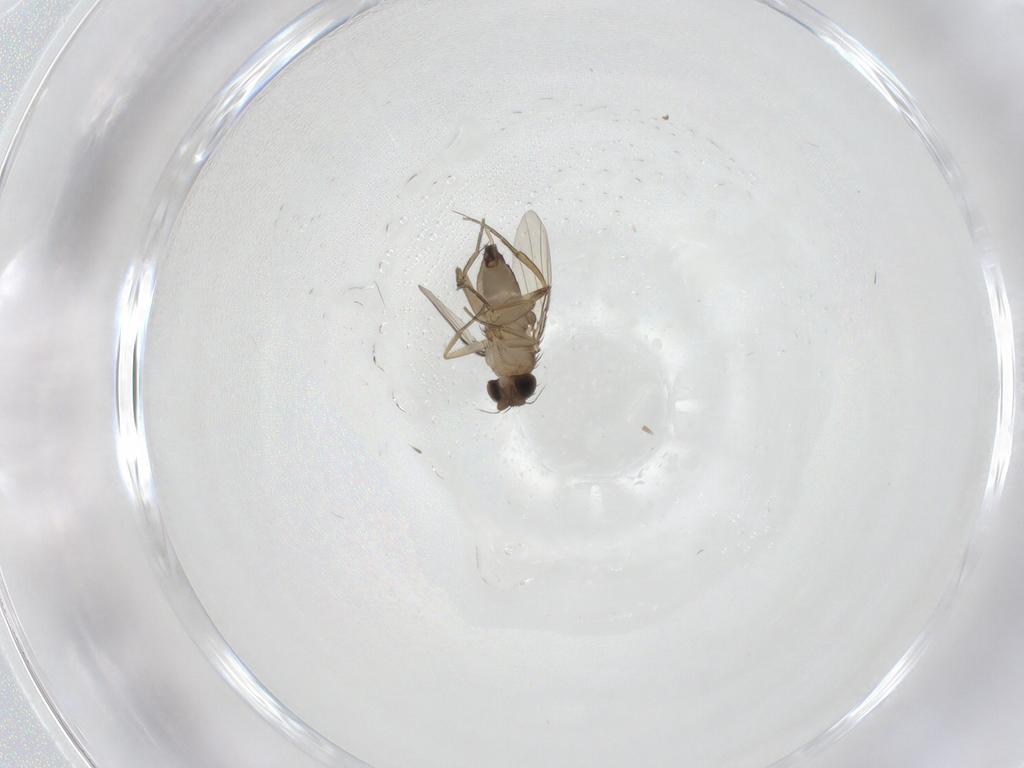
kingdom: Animalia
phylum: Arthropoda
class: Insecta
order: Diptera
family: Phoridae
